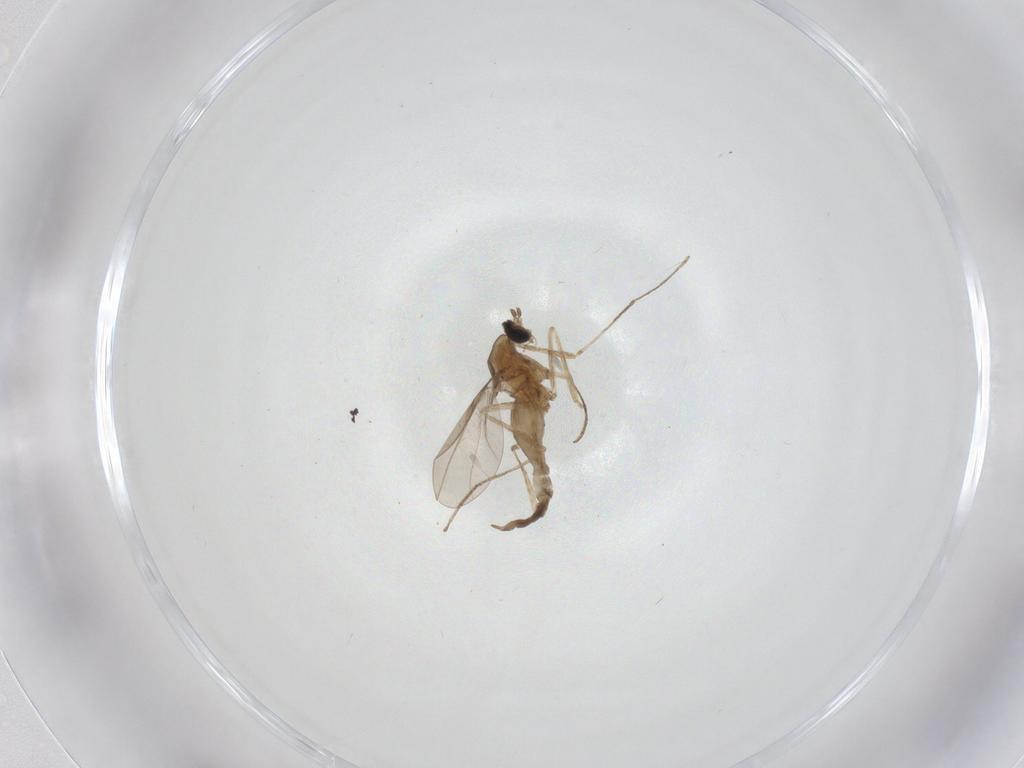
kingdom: Animalia
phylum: Arthropoda
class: Insecta
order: Diptera
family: Cecidomyiidae
